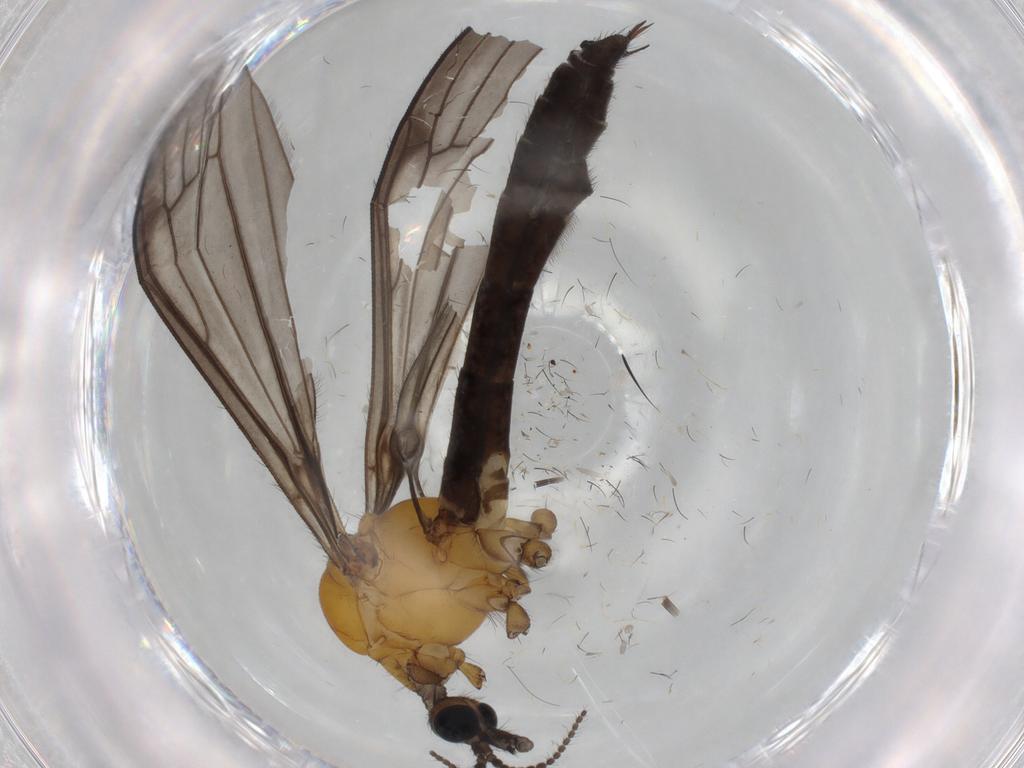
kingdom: Animalia
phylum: Arthropoda
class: Insecta
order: Diptera
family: Limoniidae
